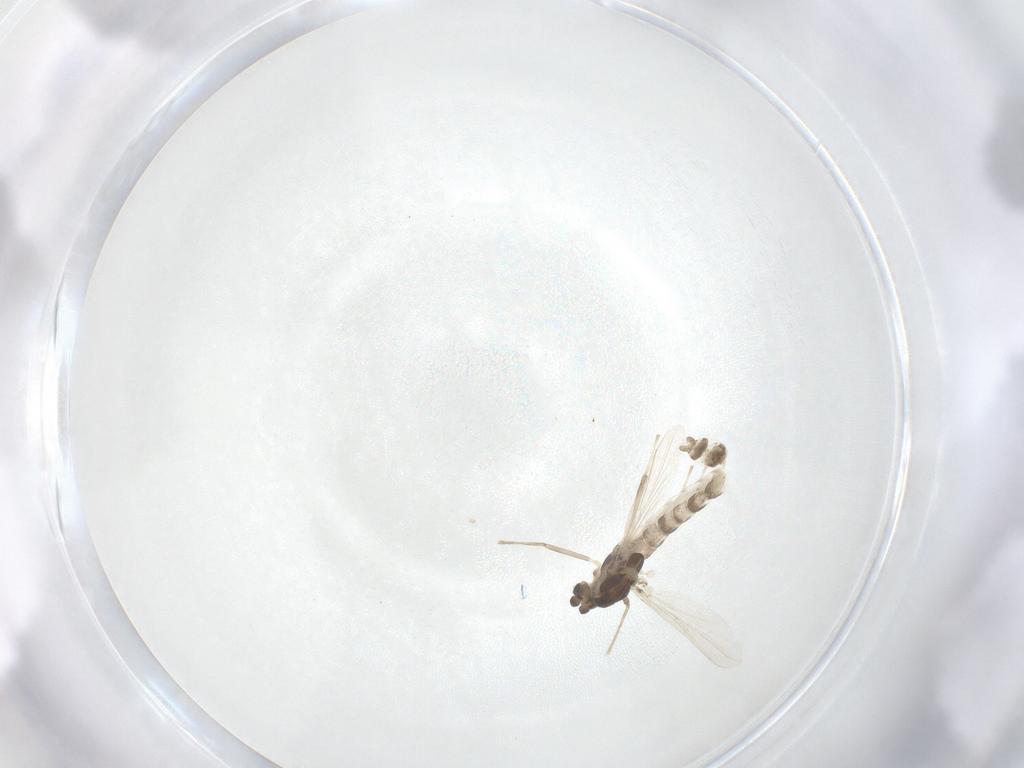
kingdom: Animalia
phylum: Arthropoda
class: Insecta
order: Diptera
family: Chironomidae
